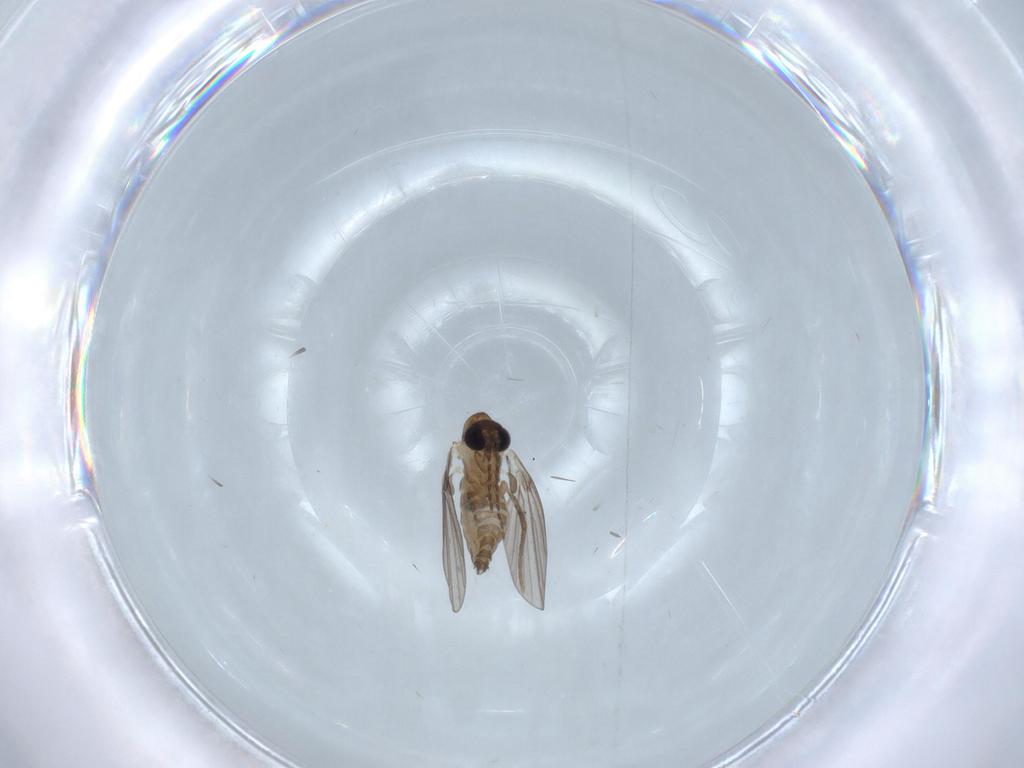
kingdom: Animalia
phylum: Arthropoda
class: Insecta
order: Diptera
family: Dolichopodidae
